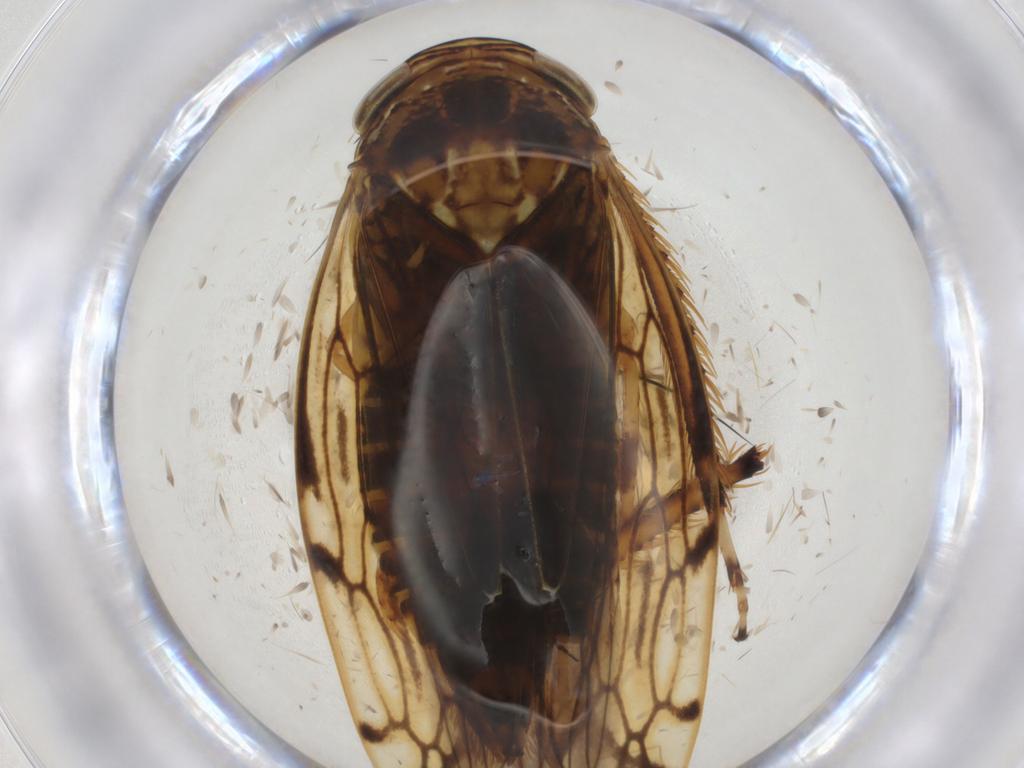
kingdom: Animalia
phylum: Arthropoda
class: Insecta
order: Hemiptera
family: Cicadellidae
